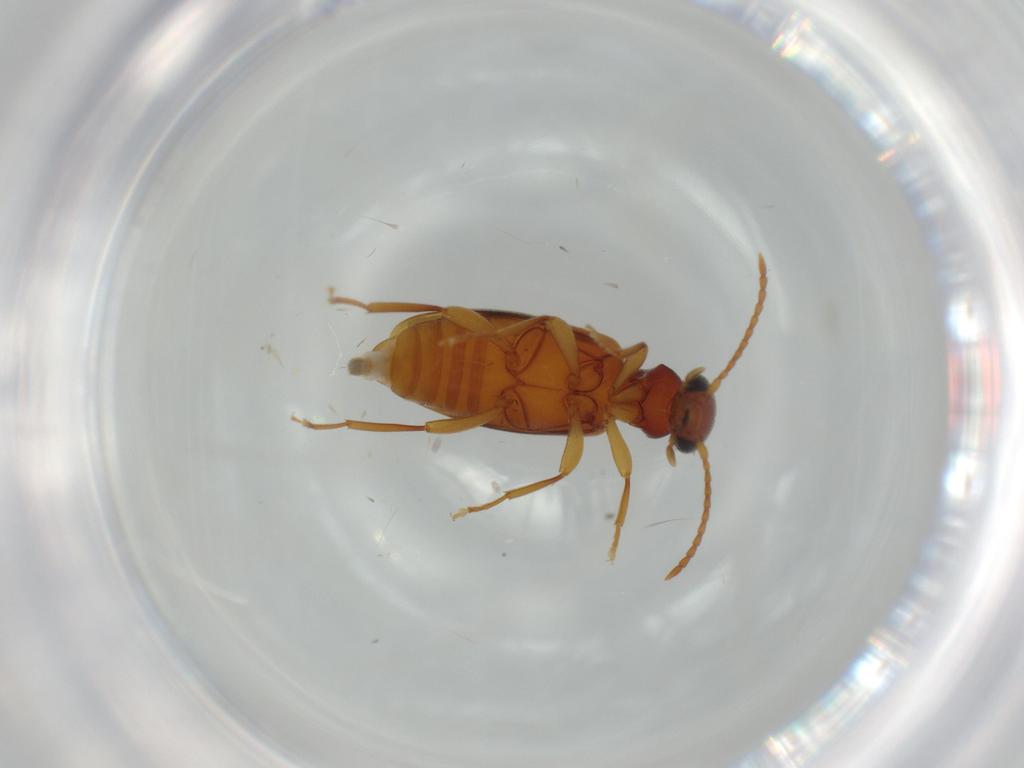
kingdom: Animalia
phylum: Arthropoda
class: Insecta
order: Coleoptera
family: Anthicidae
